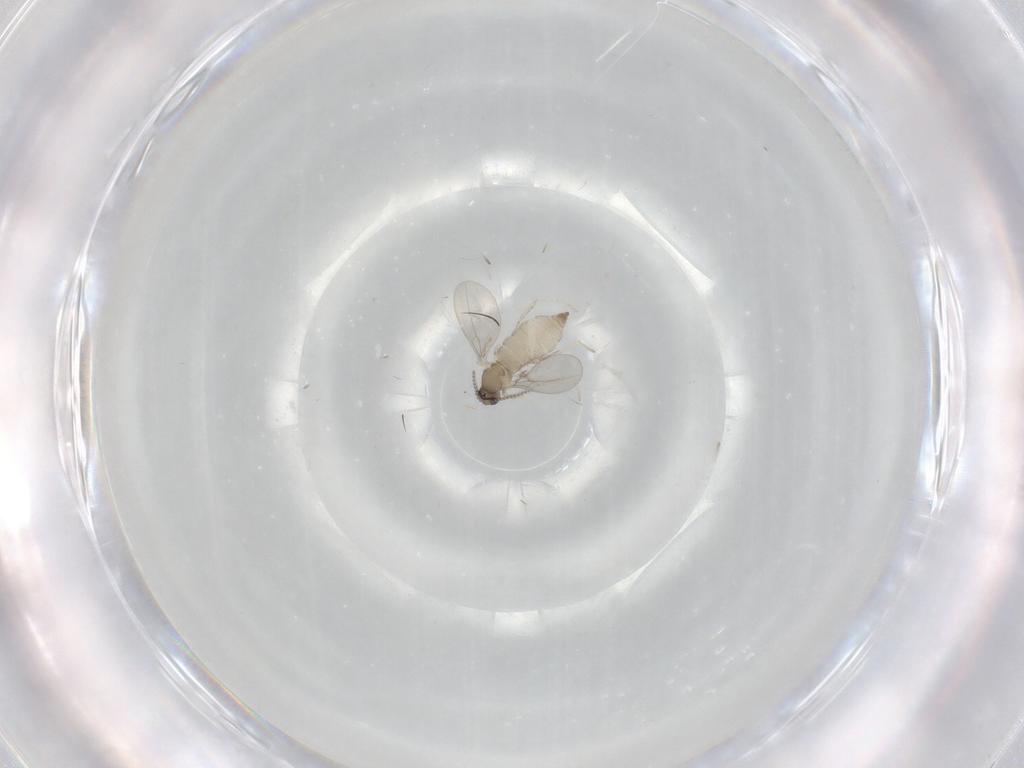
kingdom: Animalia
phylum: Arthropoda
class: Insecta
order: Diptera
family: Cecidomyiidae
